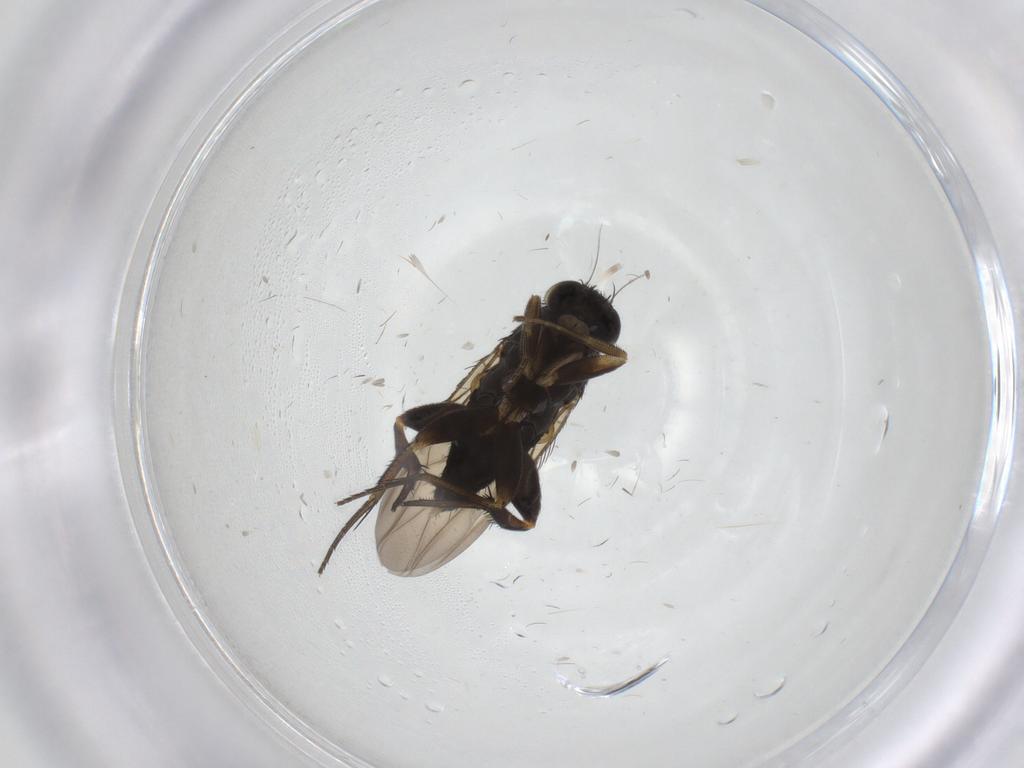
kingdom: Animalia
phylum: Arthropoda
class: Insecta
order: Diptera
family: Phoridae
